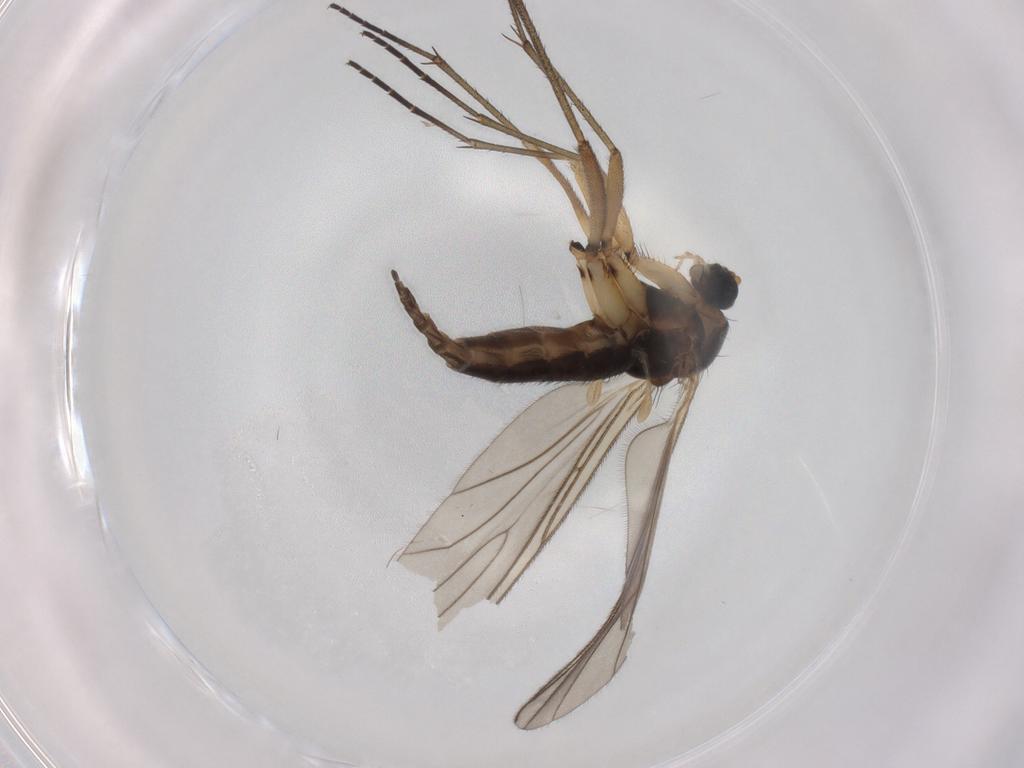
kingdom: Animalia
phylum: Arthropoda
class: Insecta
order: Diptera
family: Sciaridae
